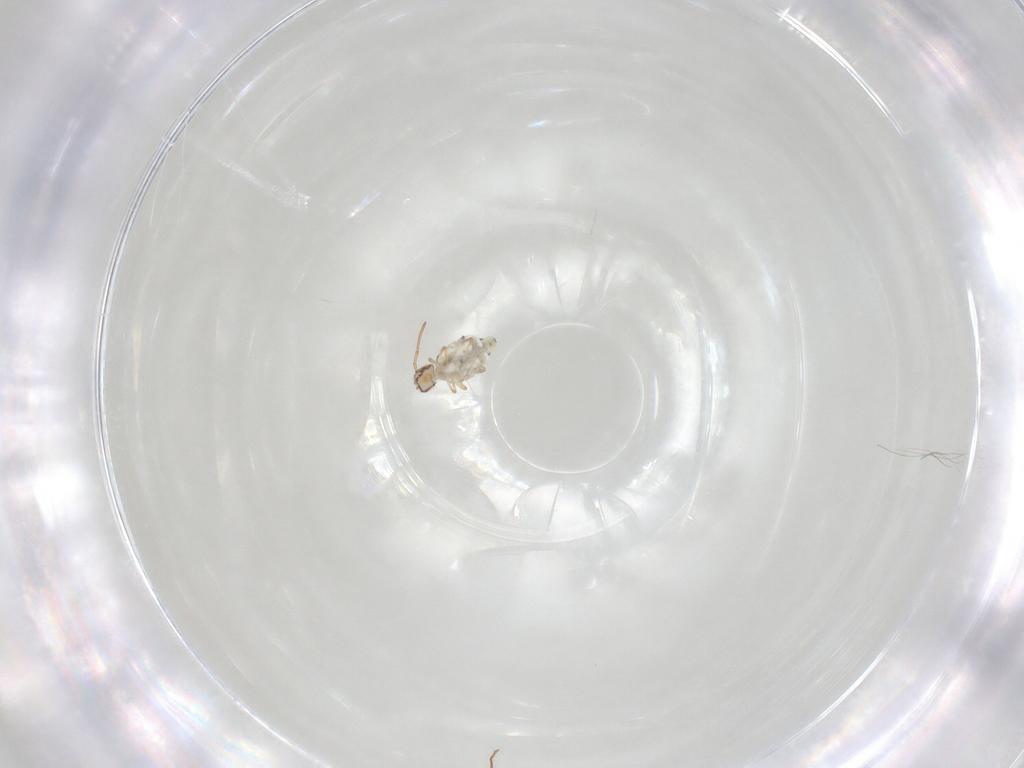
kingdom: Animalia
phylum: Arthropoda
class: Collembola
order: Symphypleona
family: Bourletiellidae
